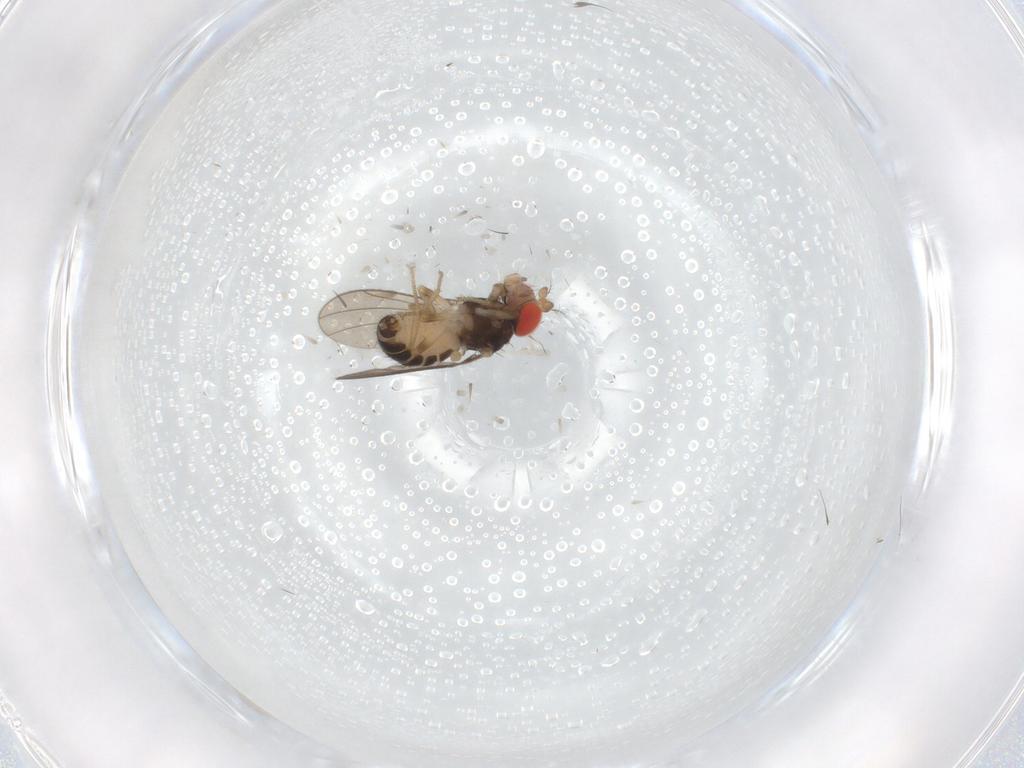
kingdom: Animalia
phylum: Arthropoda
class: Insecta
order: Diptera
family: Drosophilidae
